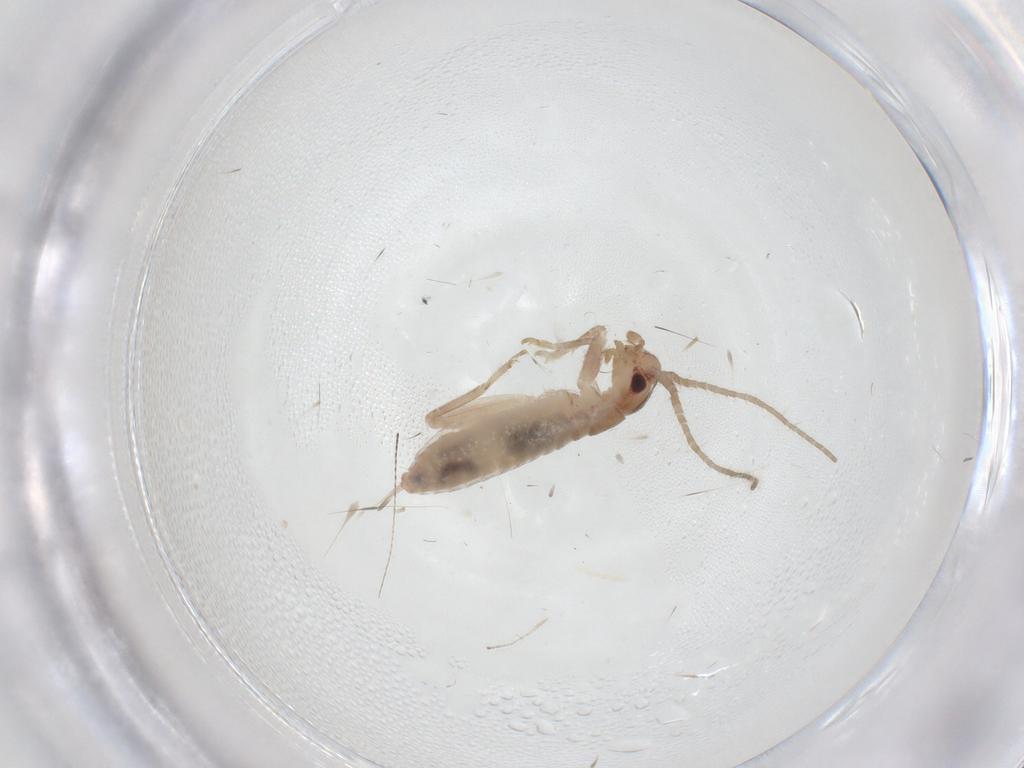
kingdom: Animalia
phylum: Arthropoda
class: Insecta
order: Orthoptera
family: Mogoplistidae
